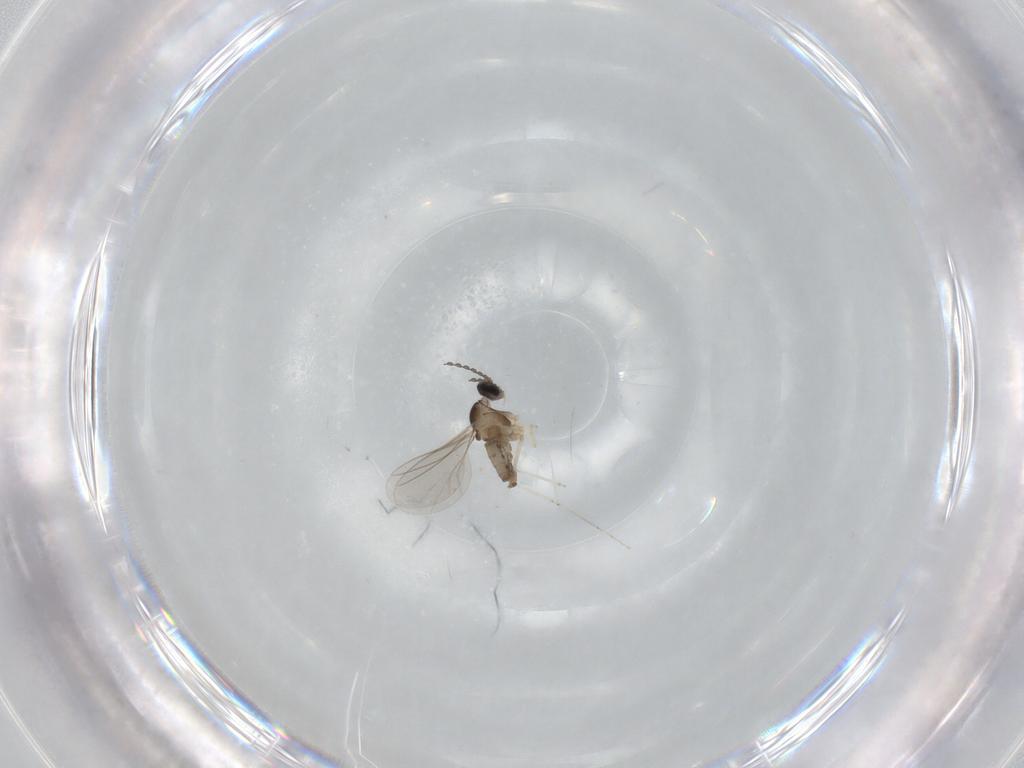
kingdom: Animalia
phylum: Arthropoda
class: Insecta
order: Diptera
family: Cecidomyiidae
